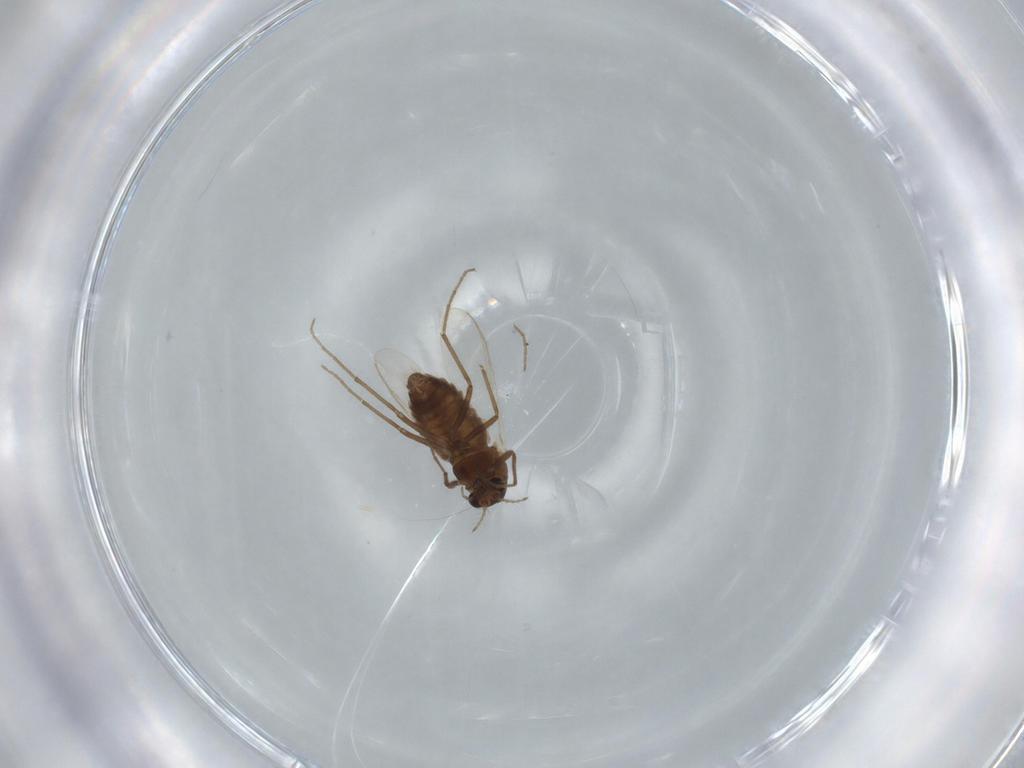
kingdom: Animalia
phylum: Arthropoda
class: Insecta
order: Diptera
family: Chironomidae
